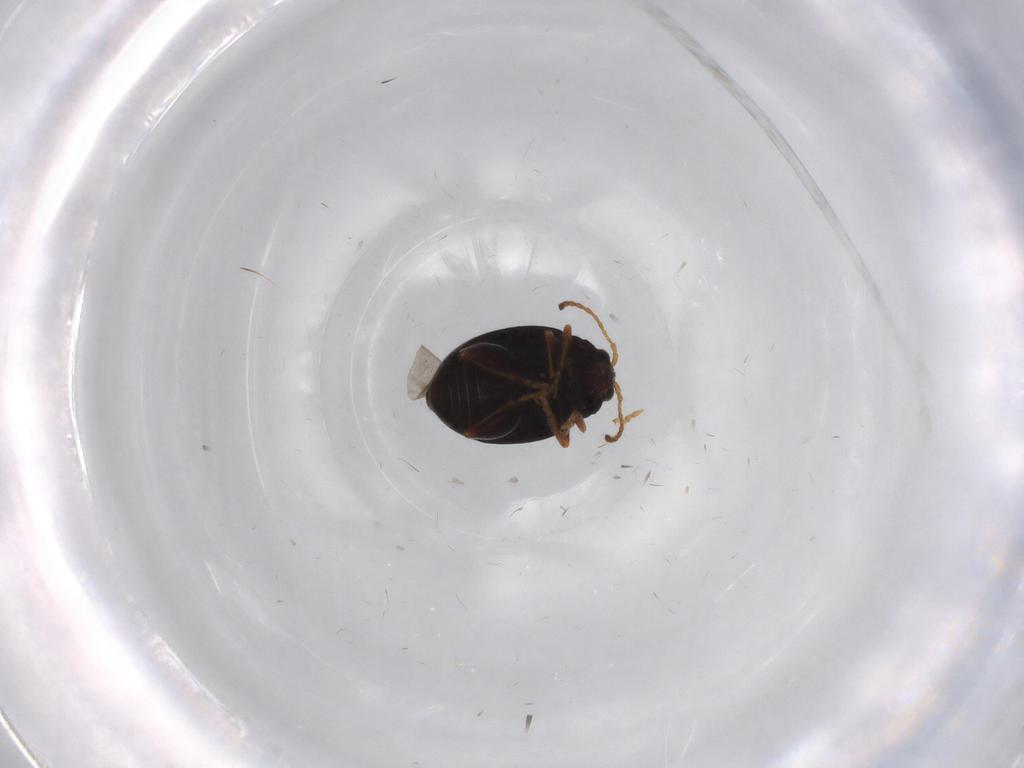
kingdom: Animalia
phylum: Arthropoda
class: Insecta
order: Coleoptera
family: Chrysomelidae
